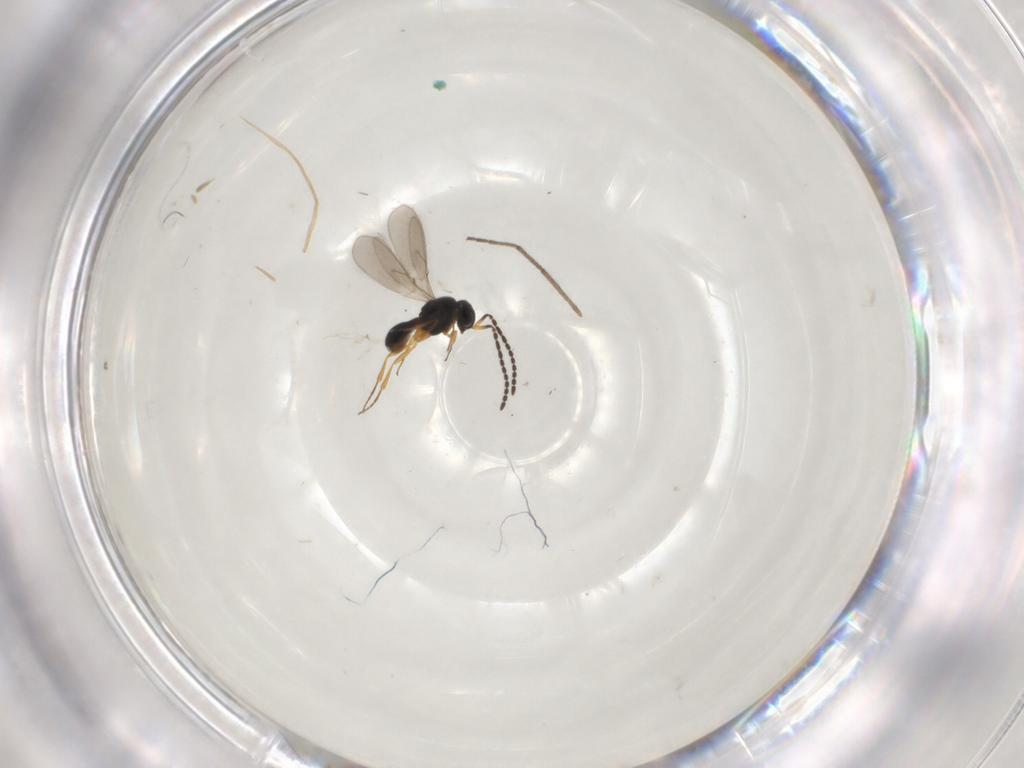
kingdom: Animalia
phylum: Arthropoda
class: Insecta
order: Hymenoptera
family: Scelionidae
